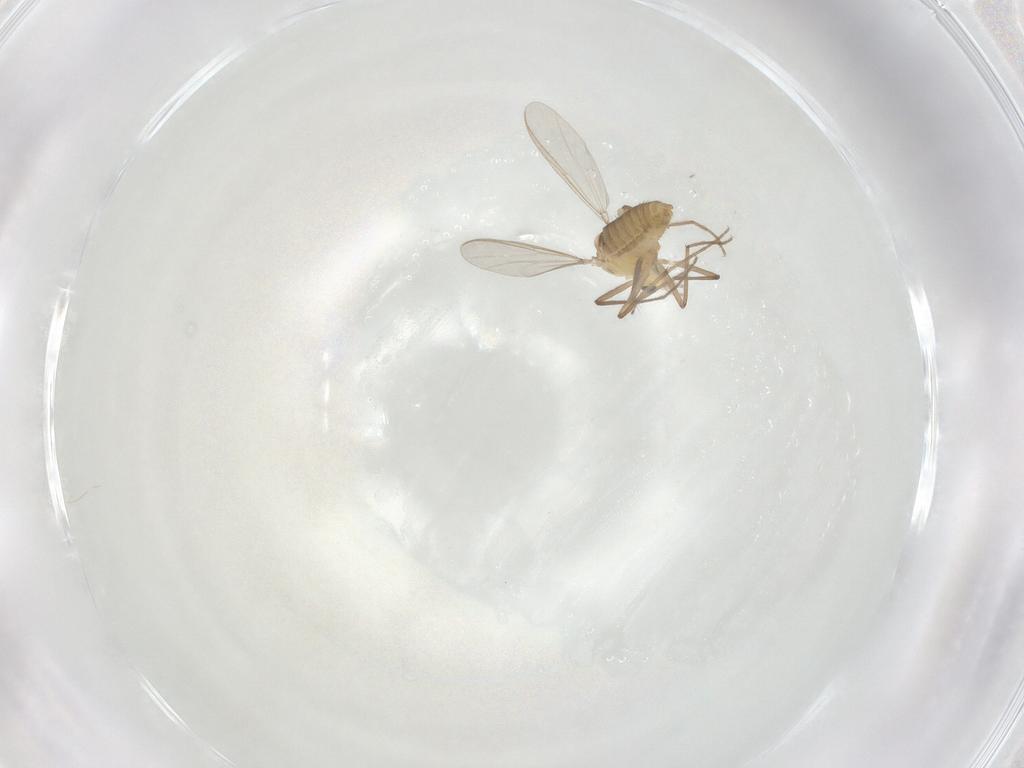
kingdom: Animalia
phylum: Arthropoda
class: Insecta
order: Diptera
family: Chironomidae
